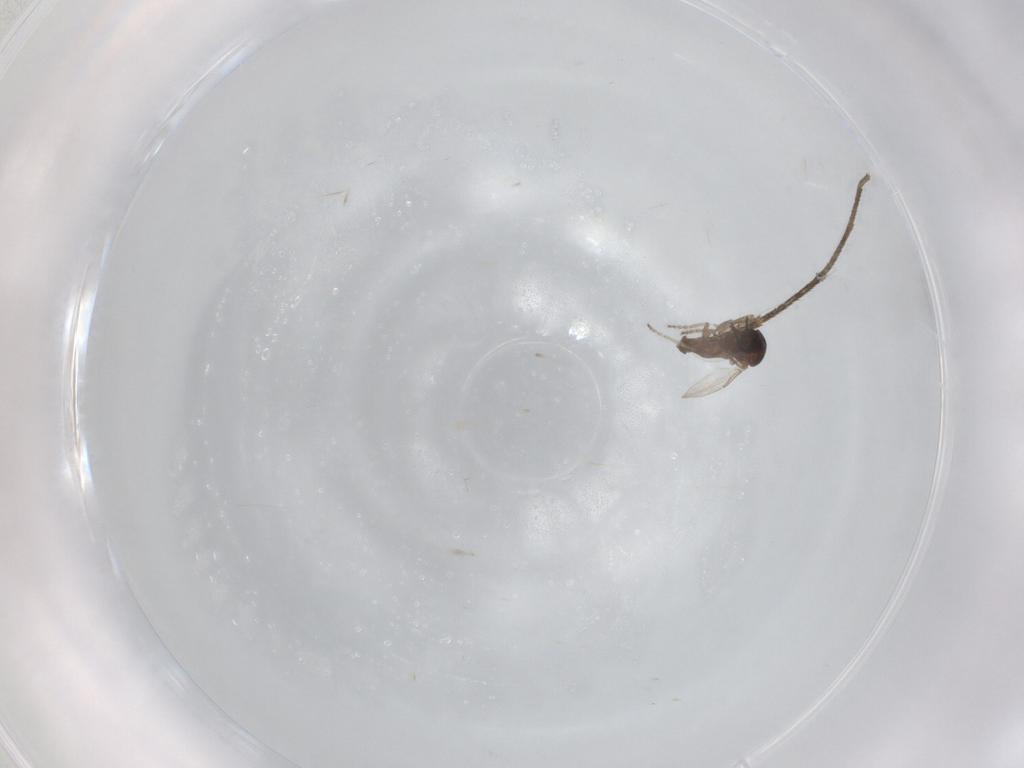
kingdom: Animalia
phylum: Arthropoda
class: Insecta
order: Diptera
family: Ceratopogonidae
